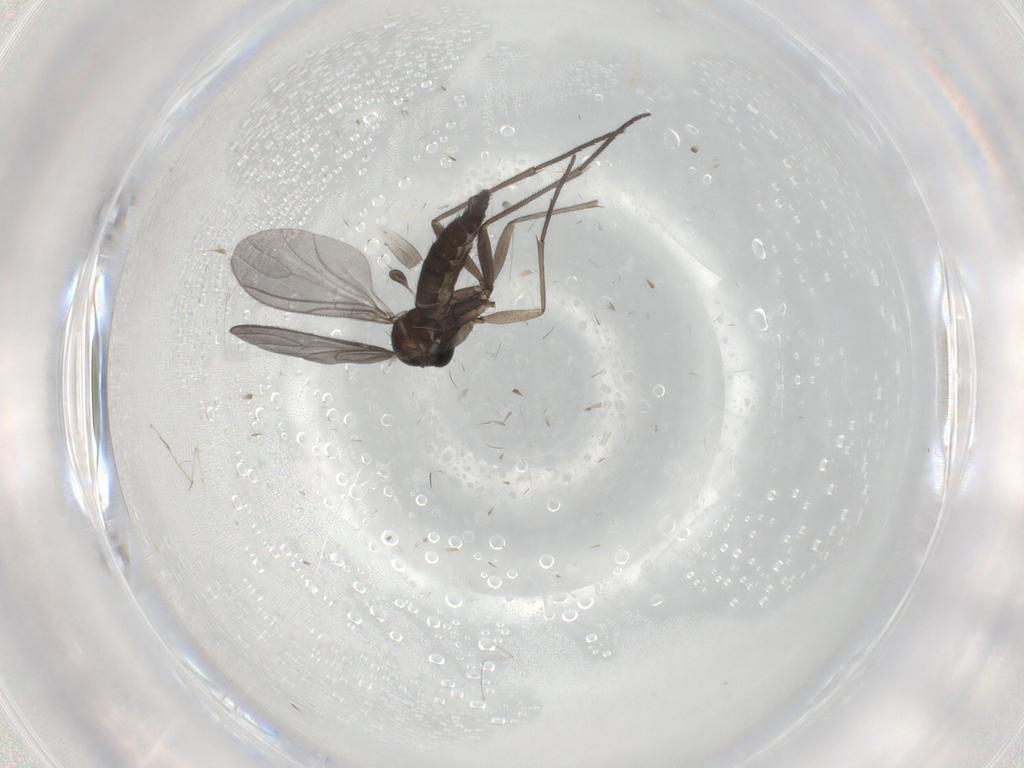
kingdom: Animalia
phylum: Arthropoda
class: Insecta
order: Diptera
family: Sciaridae
